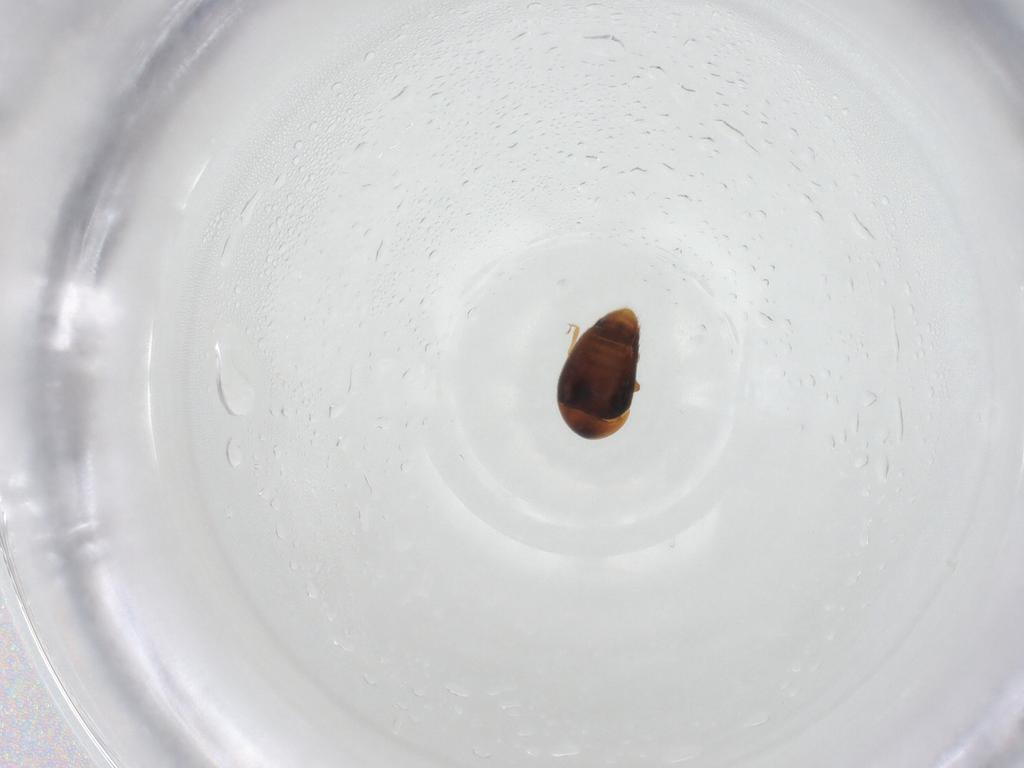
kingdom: Animalia
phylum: Arthropoda
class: Insecta
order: Coleoptera
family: Corylophidae
